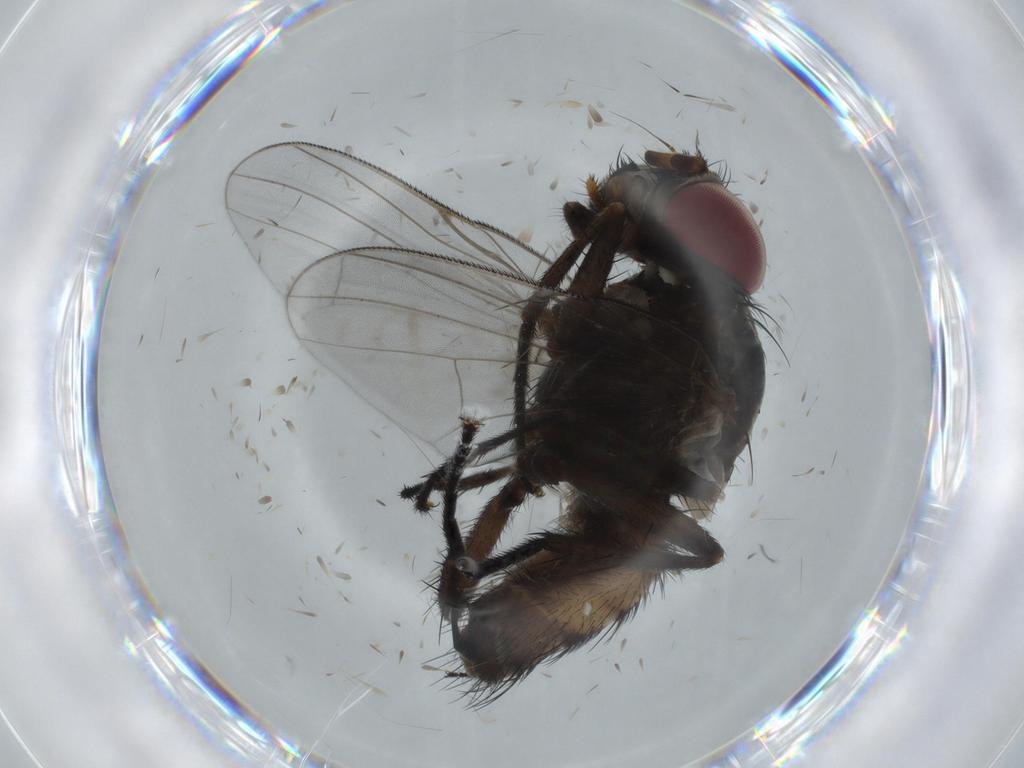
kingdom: Animalia
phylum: Arthropoda
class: Insecta
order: Diptera
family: Fannia
